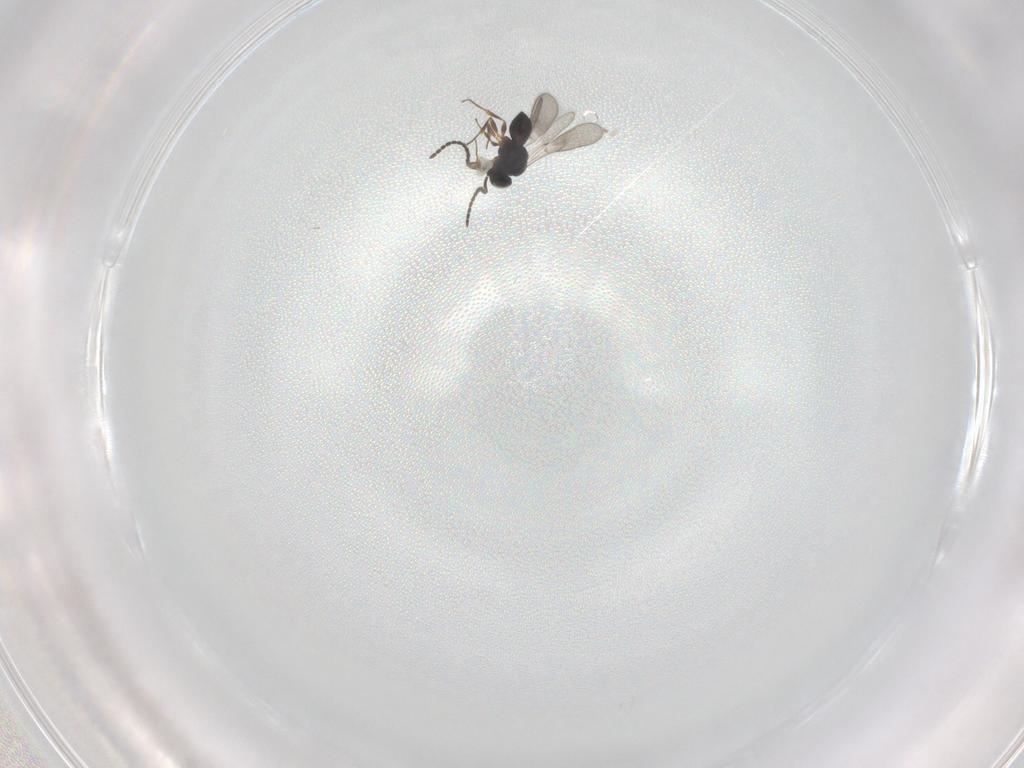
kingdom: Animalia
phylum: Arthropoda
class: Insecta
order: Hymenoptera
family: Scelionidae
